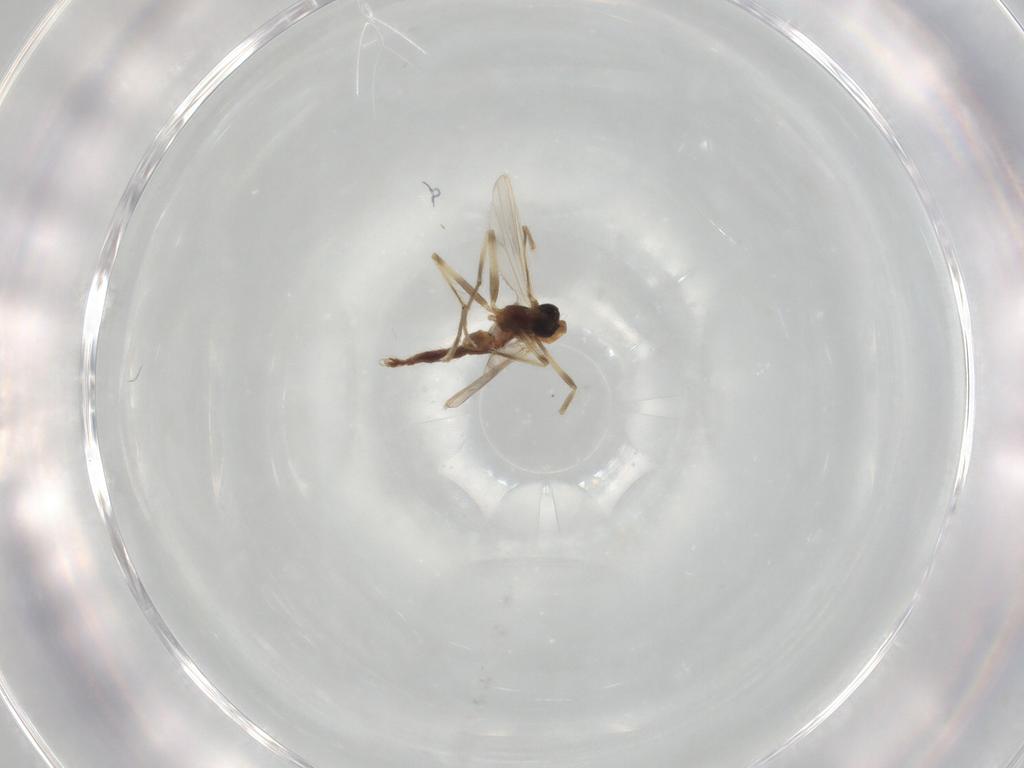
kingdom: Animalia
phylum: Arthropoda
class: Insecta
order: Diptera
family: Chironomidae
